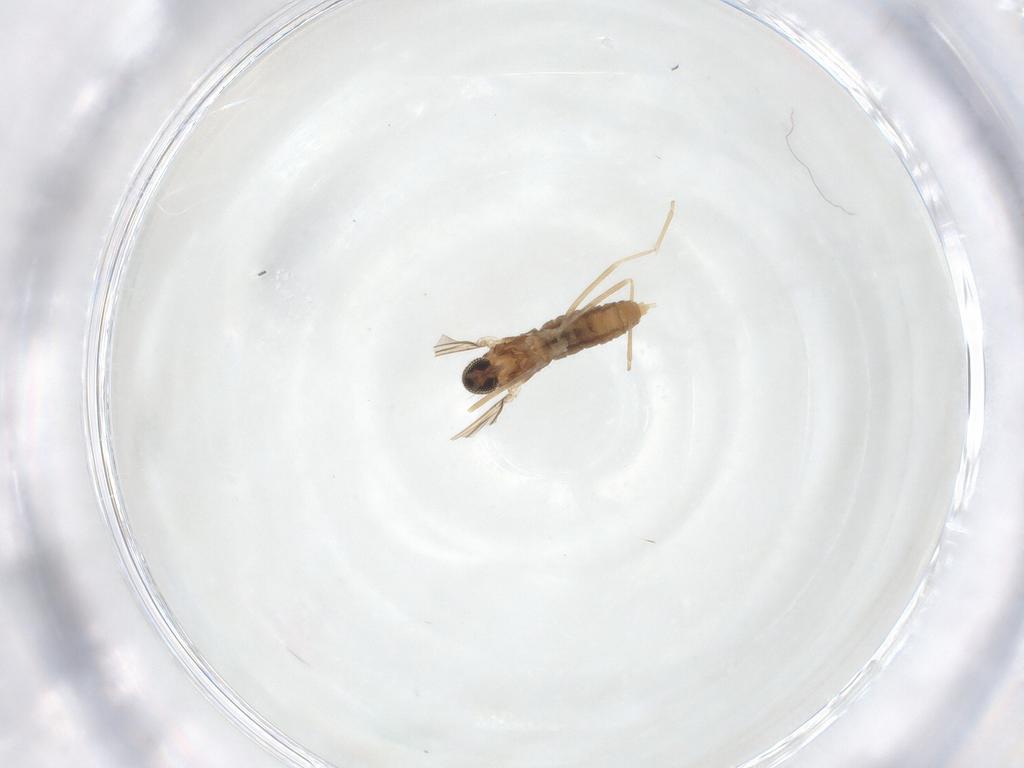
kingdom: Animalia
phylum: Arthropoda
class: Insecta
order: Diptera
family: Cecidomyiidae
